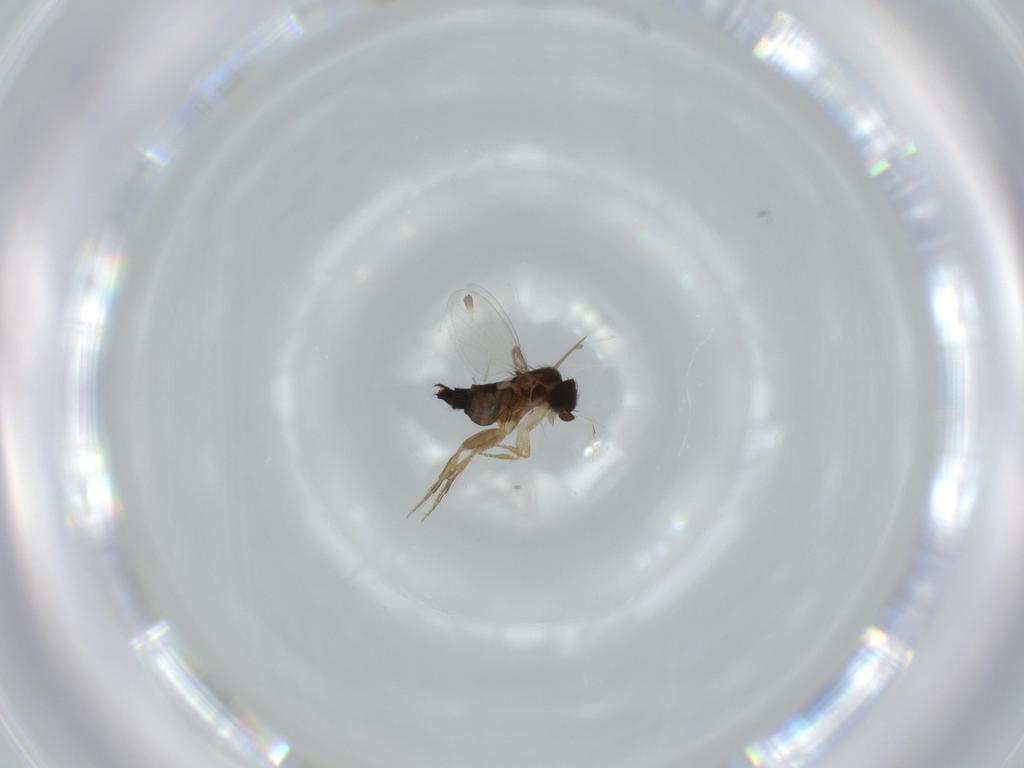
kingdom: Animalia
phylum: Arthropoda
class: Insecta
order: Diptera
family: Phoridae
